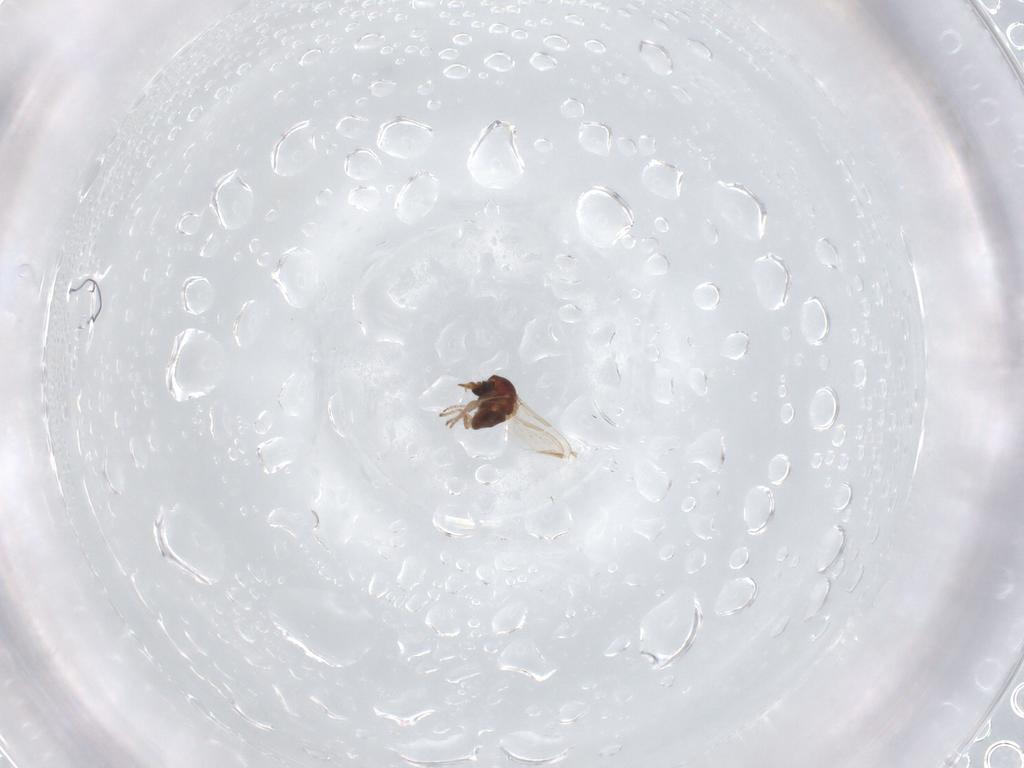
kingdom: Animalia
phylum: Arthropoda
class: Insecta
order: Diptera
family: Ceratopogonidae
